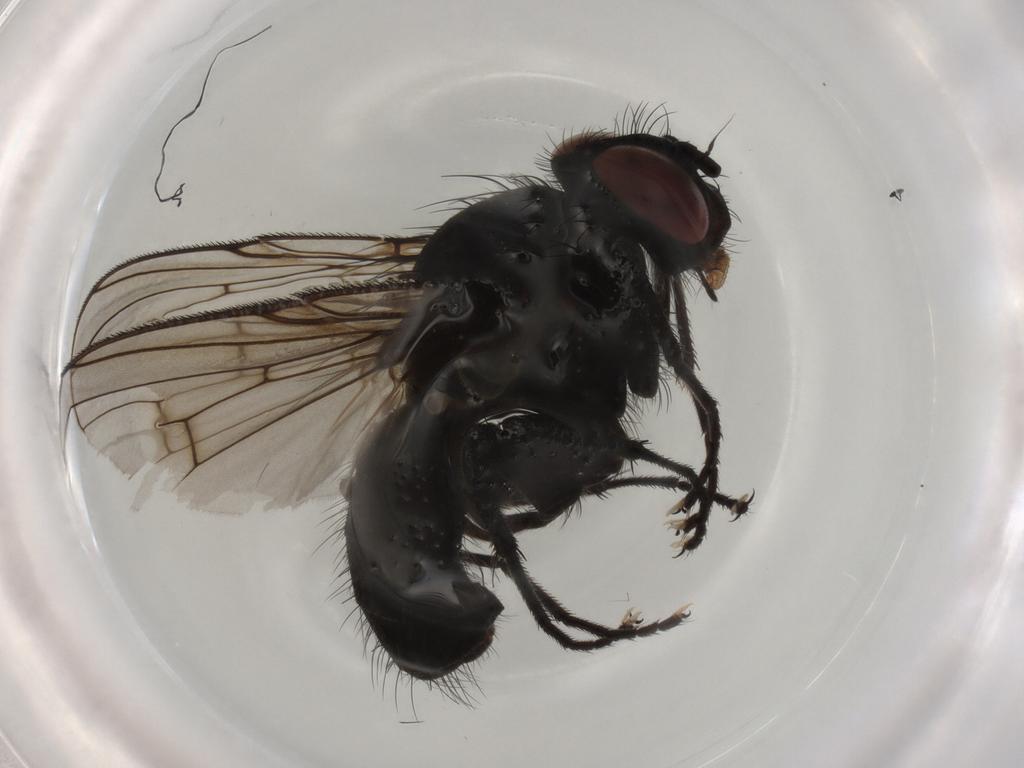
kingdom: Animalia
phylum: Arthropoda
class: Insecta
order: Diptera
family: Muscidae
